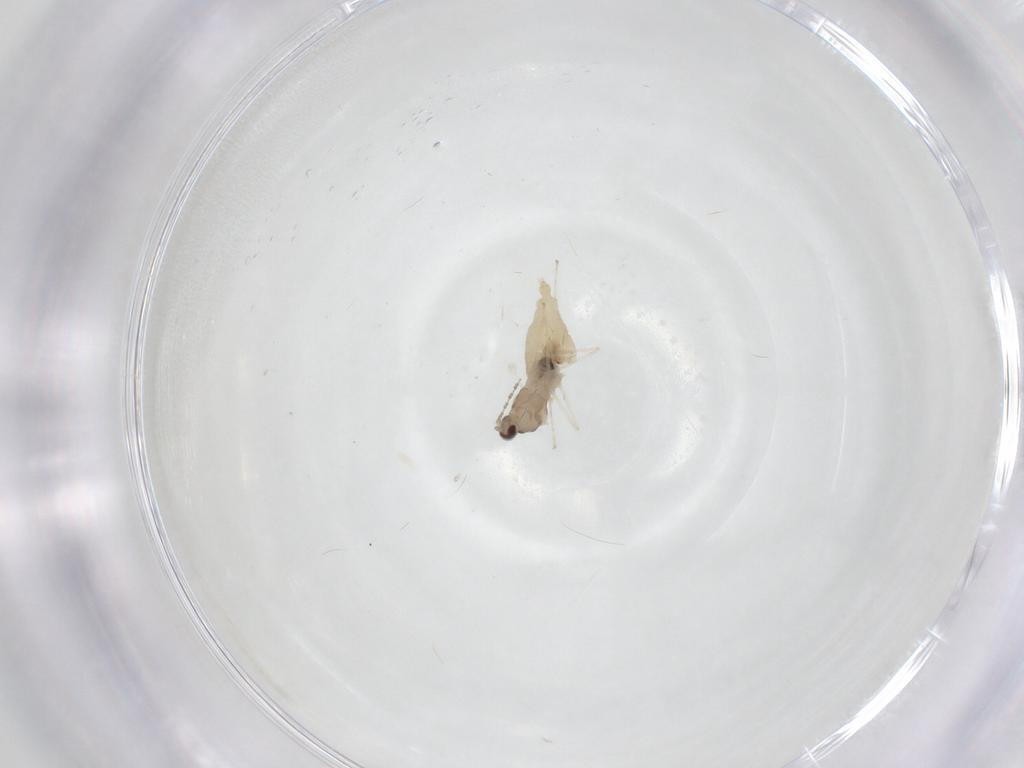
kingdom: Animalia
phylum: Arthropoda
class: Insecta
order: Diptera
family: Cecidomyiidae
